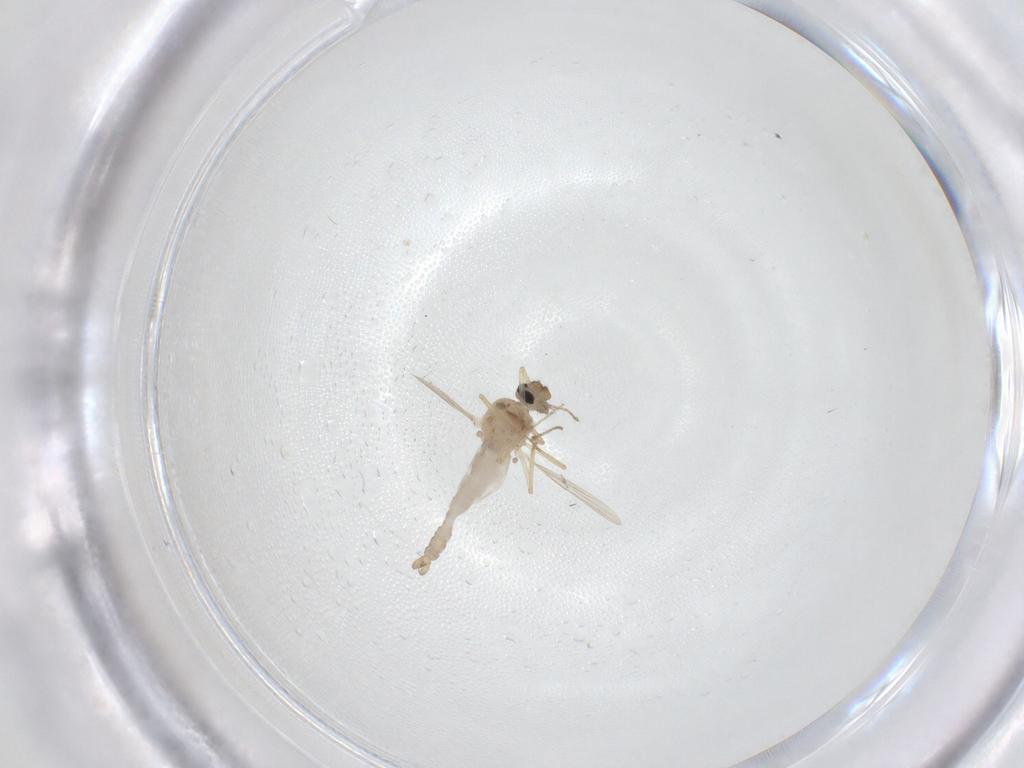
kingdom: Animalia
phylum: Arthropoda
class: Insecta
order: Diptera
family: Ceratopogonidae
